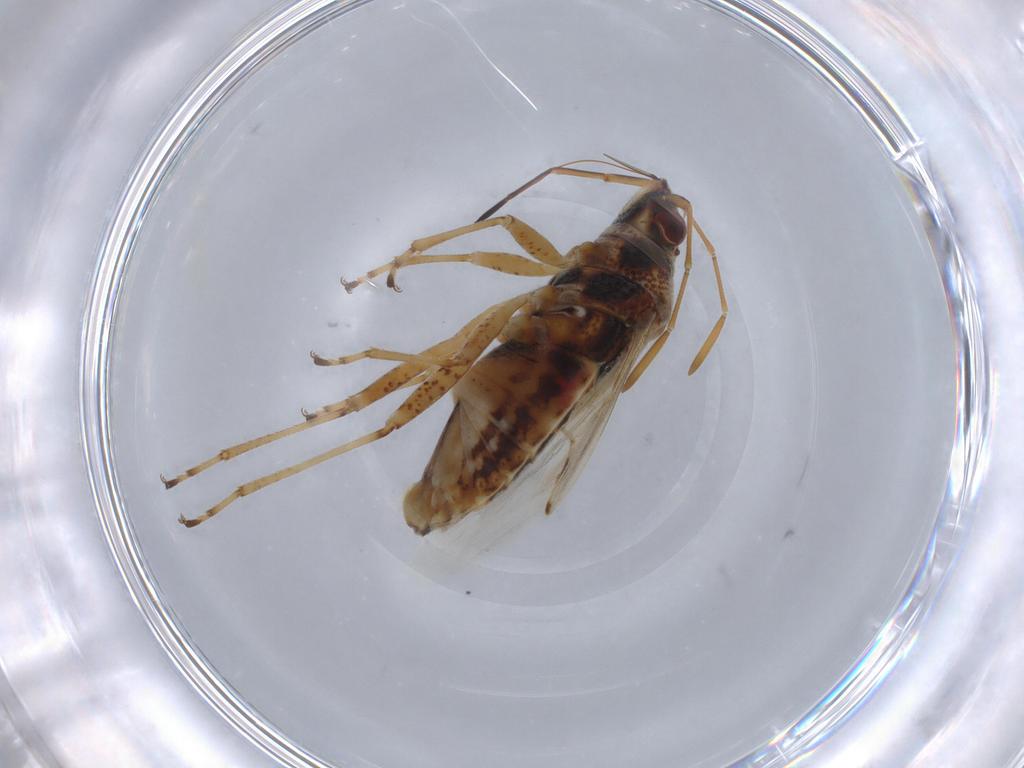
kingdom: Animalia
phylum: Arthropoda
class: Insecta
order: Hemiptera
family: Lygaeidae
